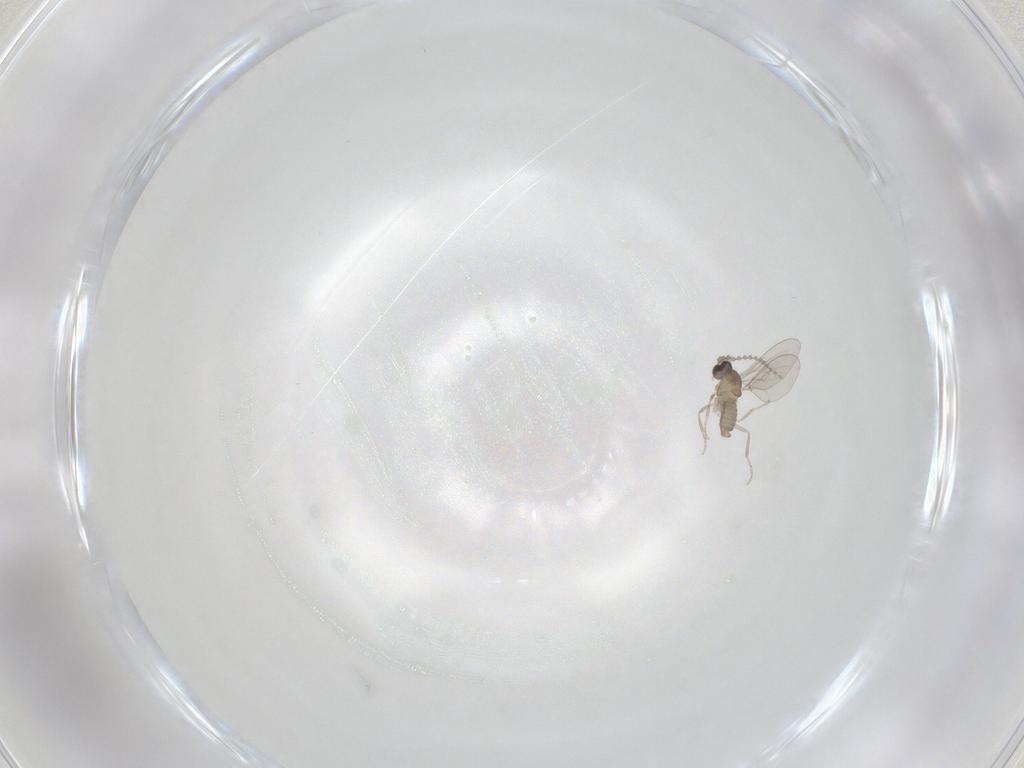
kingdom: Animalia
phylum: Arthropoda
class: Insecta
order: Diptera
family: Cecidomyiidae
